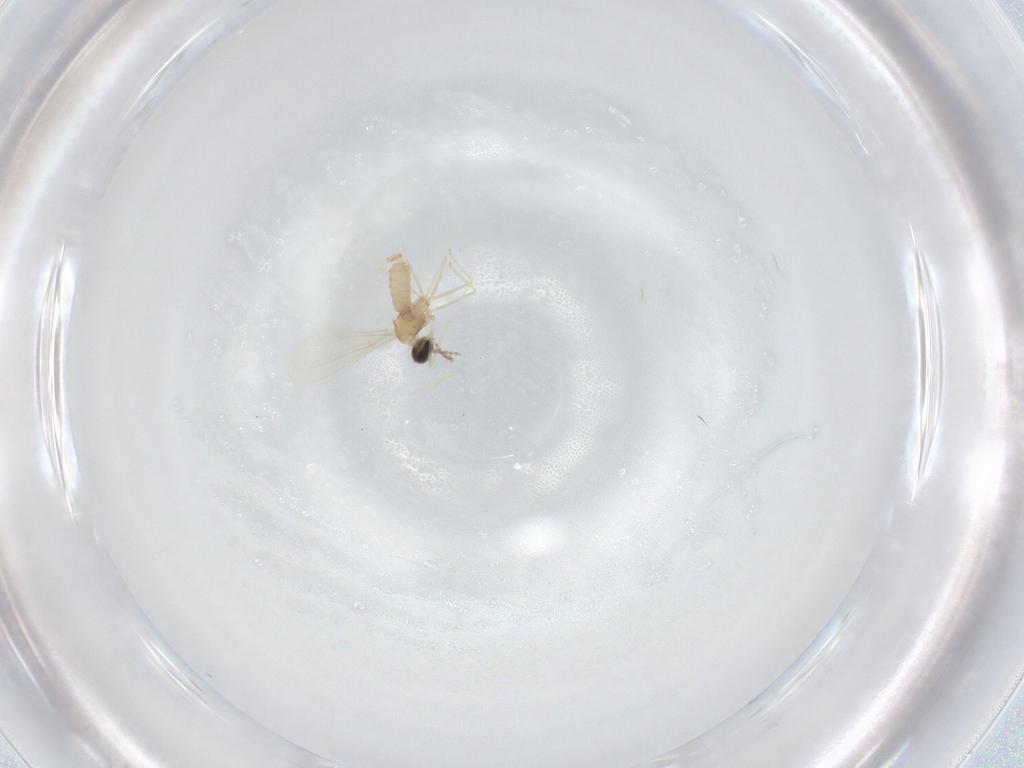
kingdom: Animalia
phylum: Arthropoda
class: Insecta
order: Diptera
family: Cecidomyiidae
